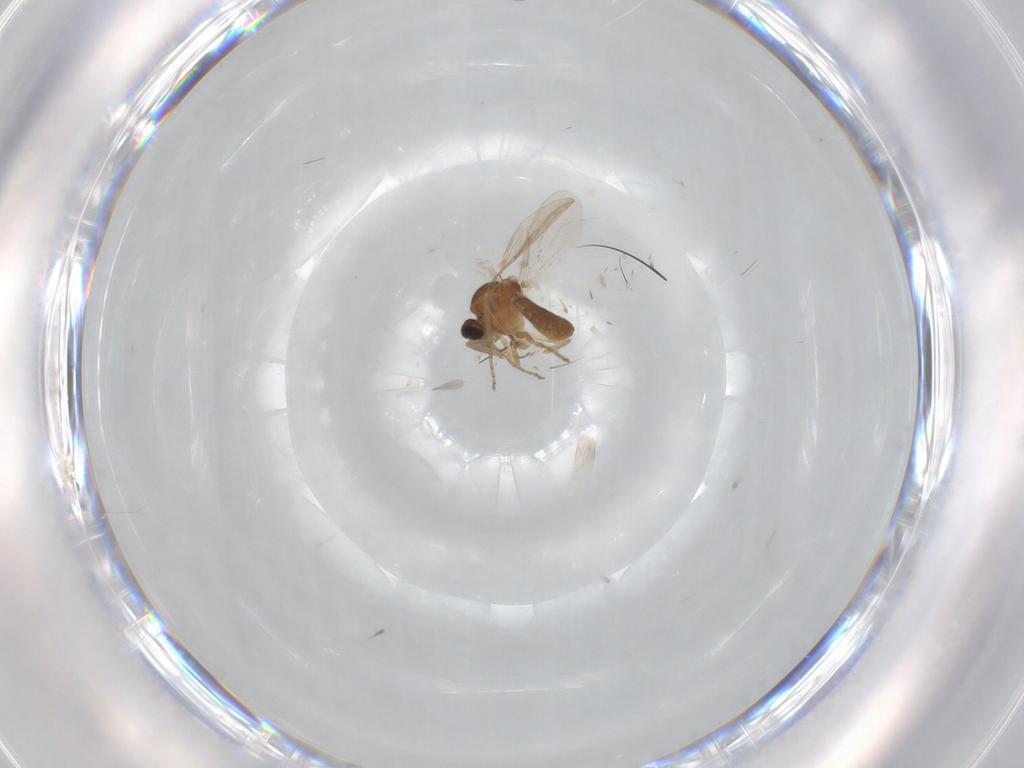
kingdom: Animalia
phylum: Arthropoda
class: Insecta
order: Diptera
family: Ceratopogonidae
